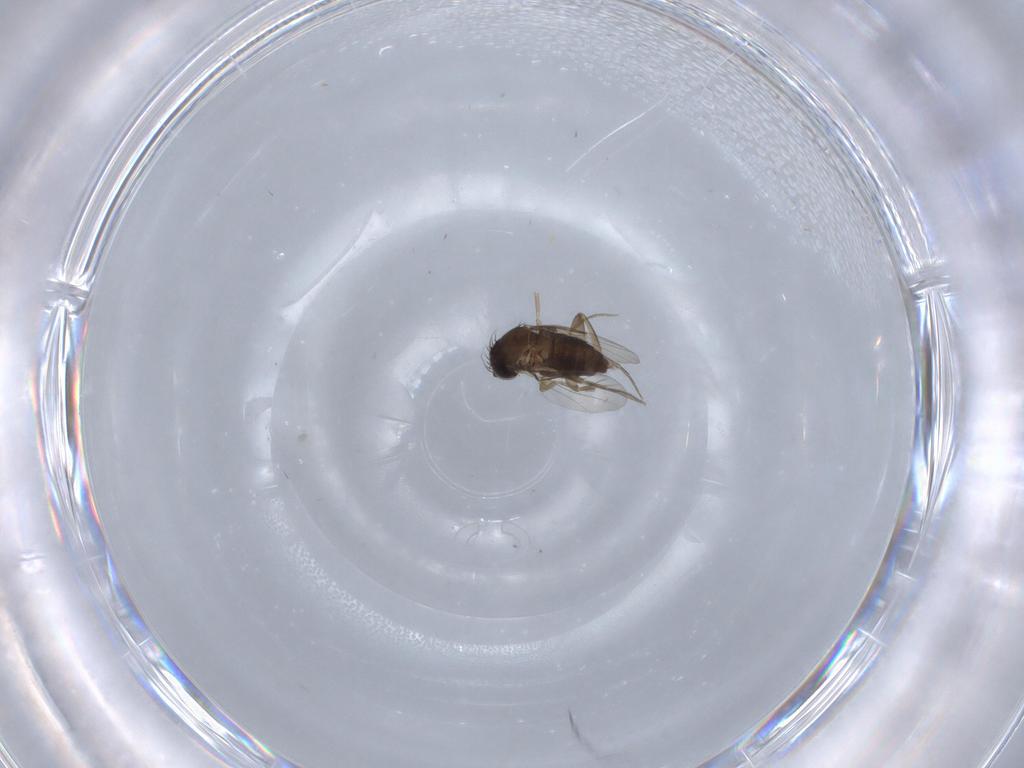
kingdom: Animalia
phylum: Arthropoda
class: Insecta
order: Diptera
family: Phoridae
